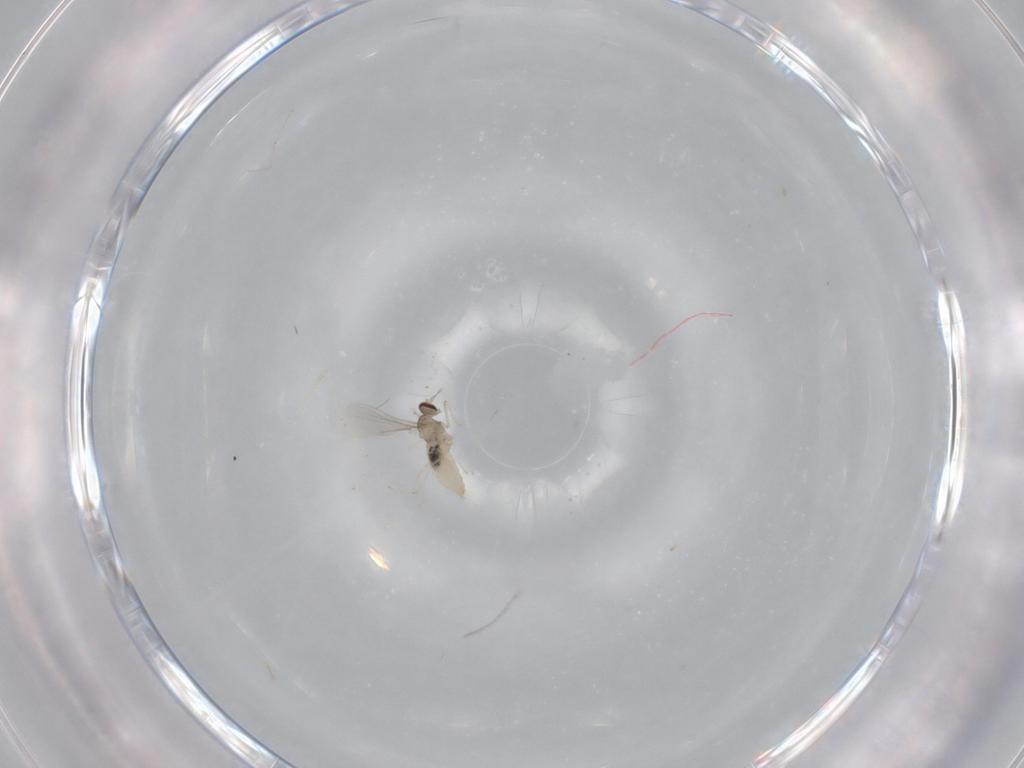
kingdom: Animalia
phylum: Arthropoda
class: Insecta
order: Diptera
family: Cecidomyiidae
